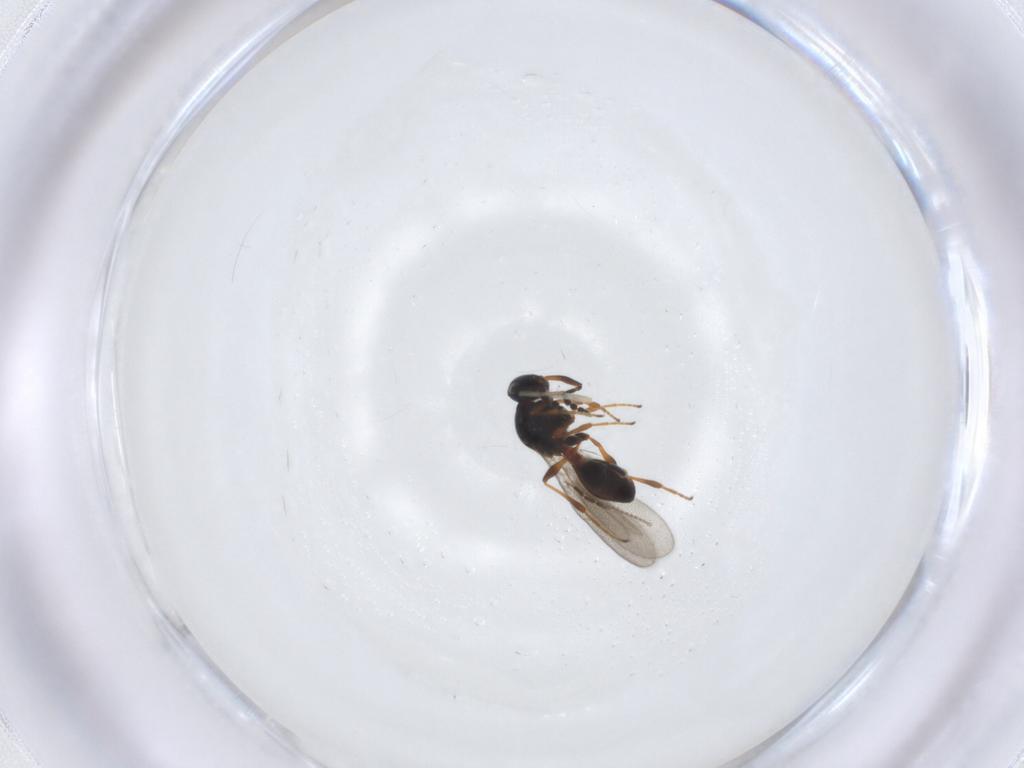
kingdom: Animalia
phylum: Arthropoda
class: Insecta
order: Hymenoptera
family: Platygastridae
